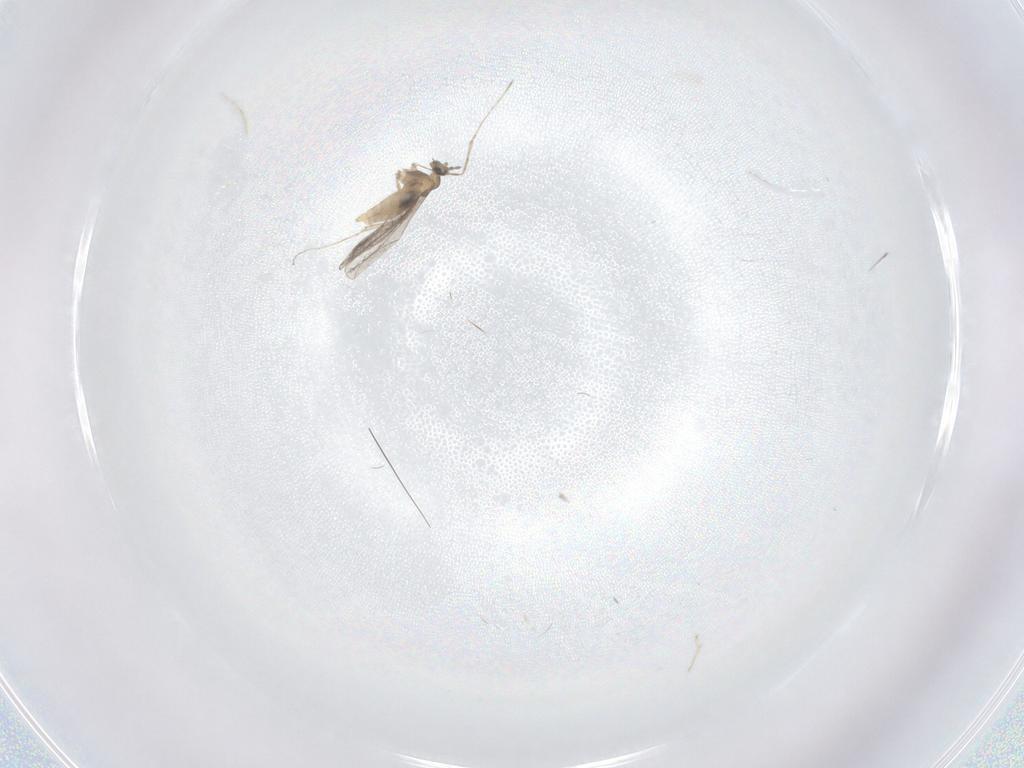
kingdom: Animalia
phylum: Arthropoda
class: Insecta
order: Diptera
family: Cecidomyiidae
